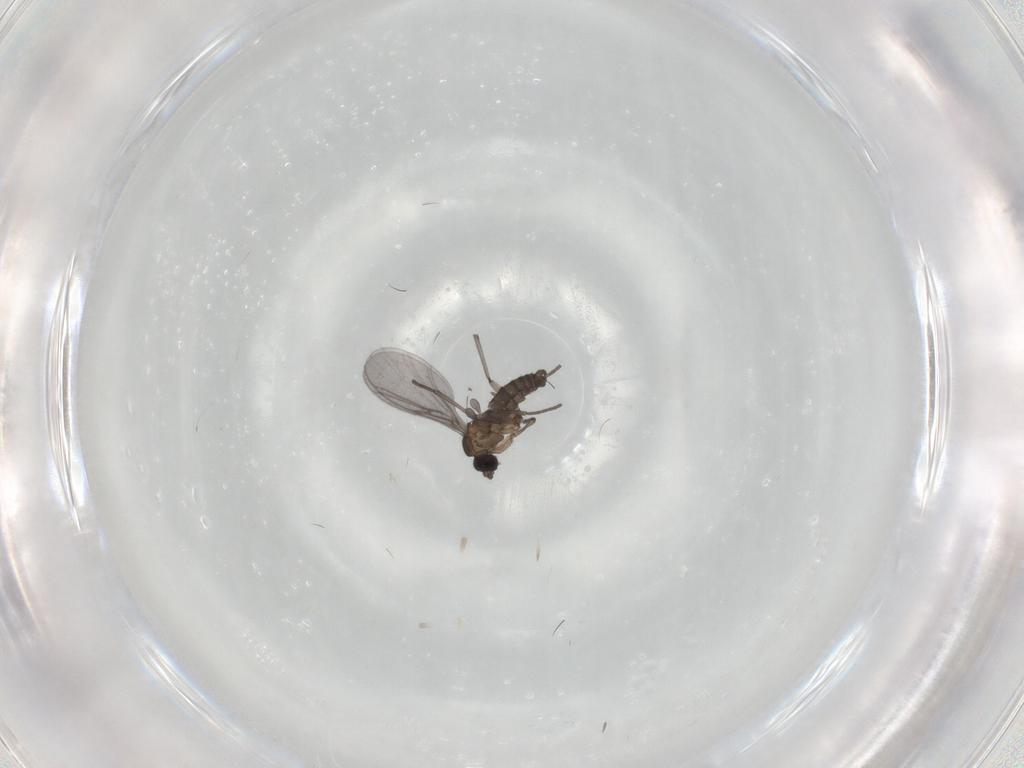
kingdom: Animalia
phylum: Arthropoda
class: Insecta
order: Diptera
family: Sciaridae
